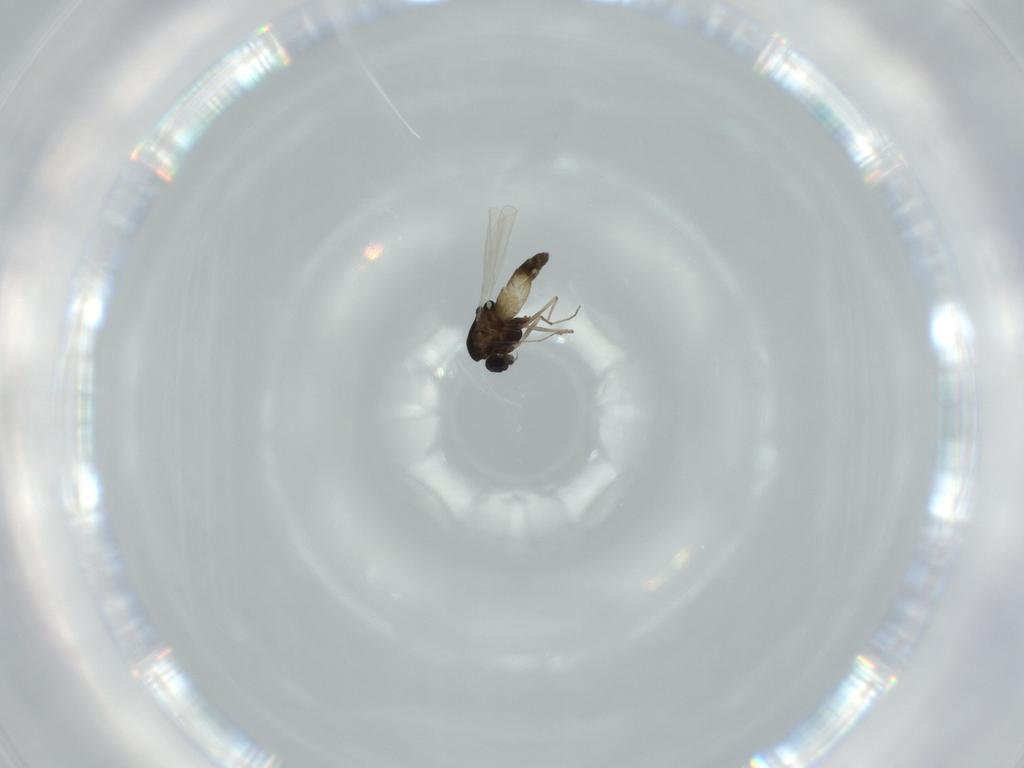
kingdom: Animalia
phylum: Arthropoda
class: Insecta
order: Diptera
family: Chironomidae
